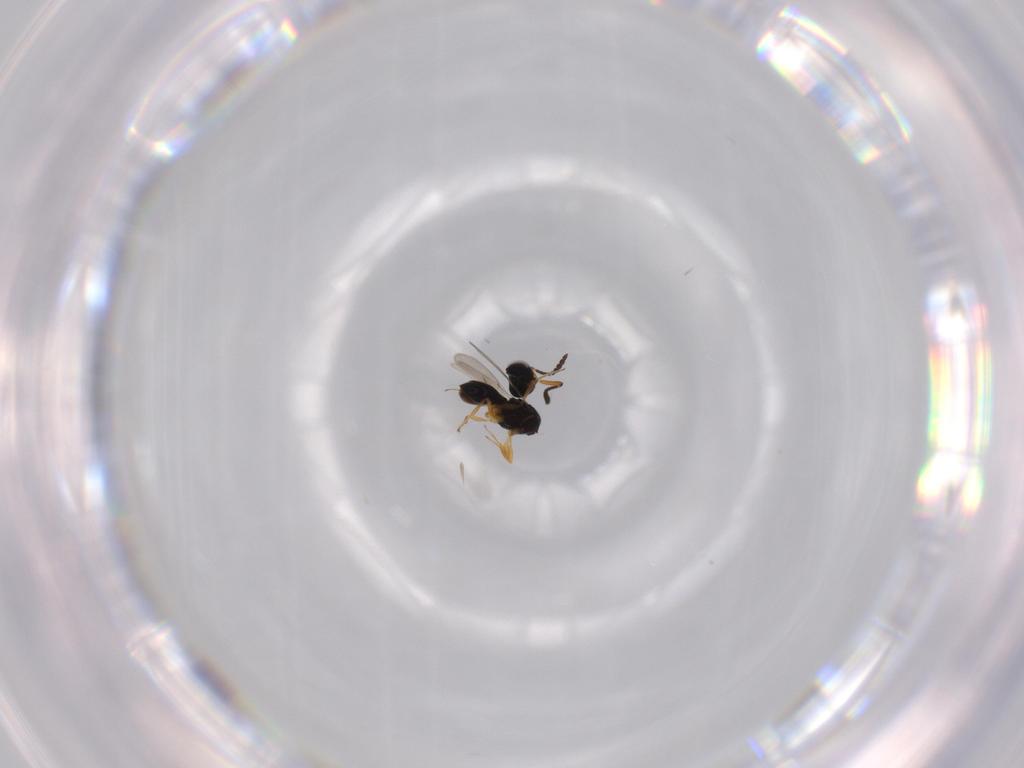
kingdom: Animalia
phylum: Arthropoda
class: Insecta
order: Hymenoptera
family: Scelionidae
